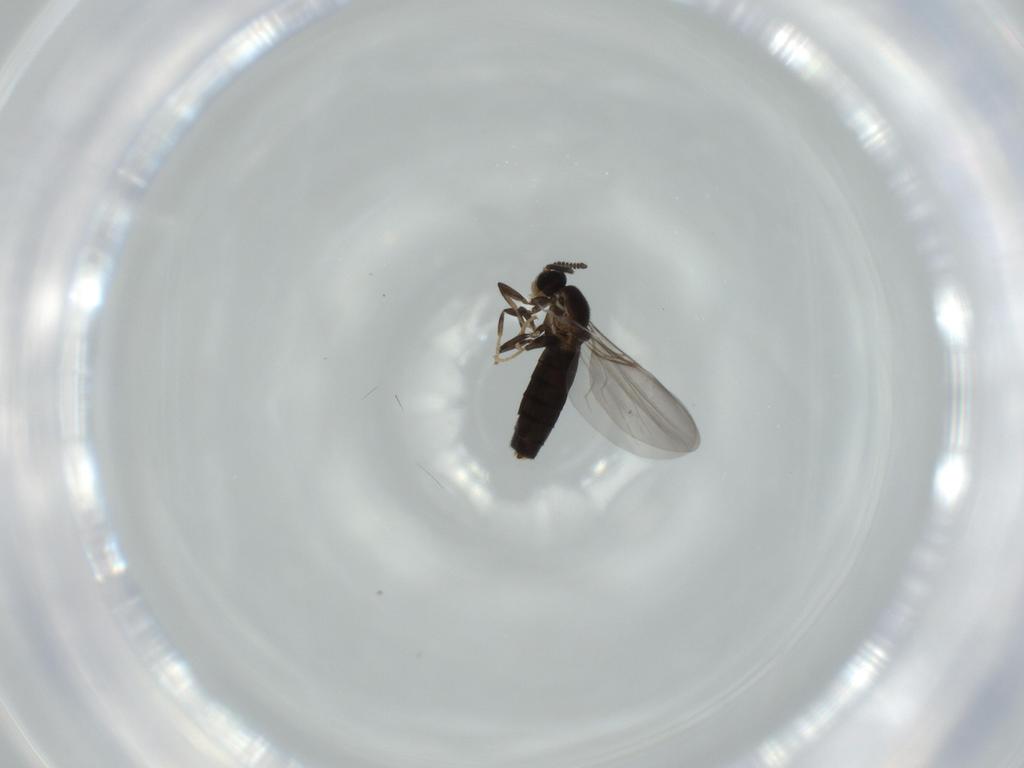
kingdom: Animalia
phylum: Arthropoda
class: Insecta
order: Diptera
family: Scatopsidae
